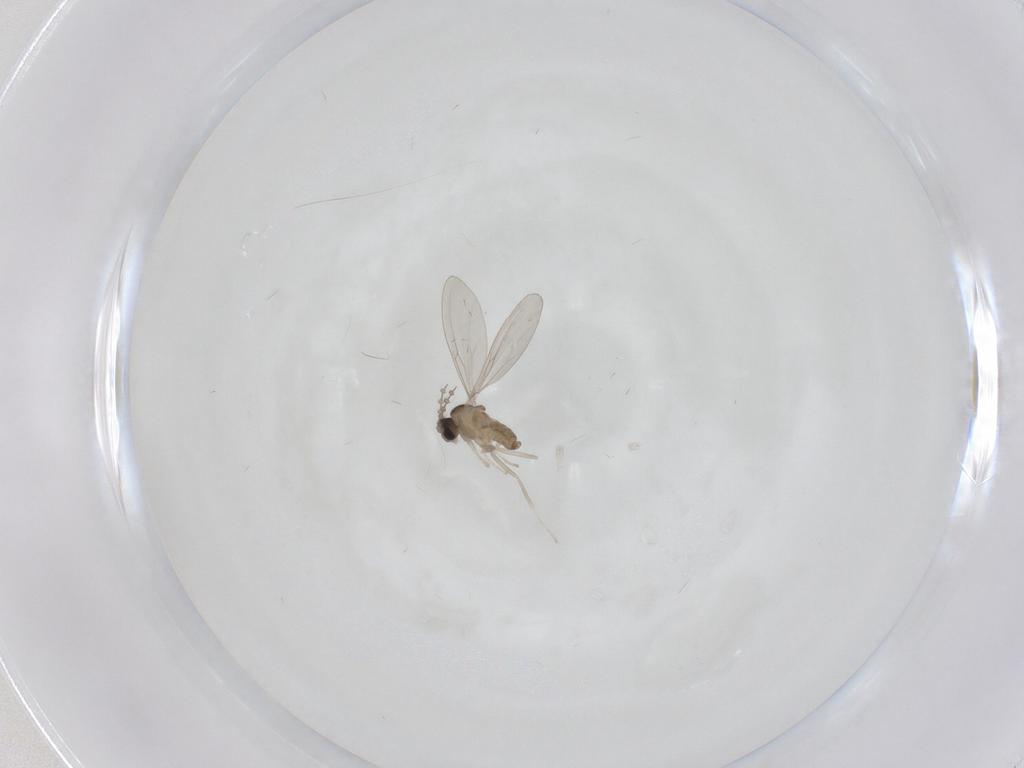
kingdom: Animalia
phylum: Arthropoda
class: Insecta
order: Diptera
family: Cecidomyiidae
